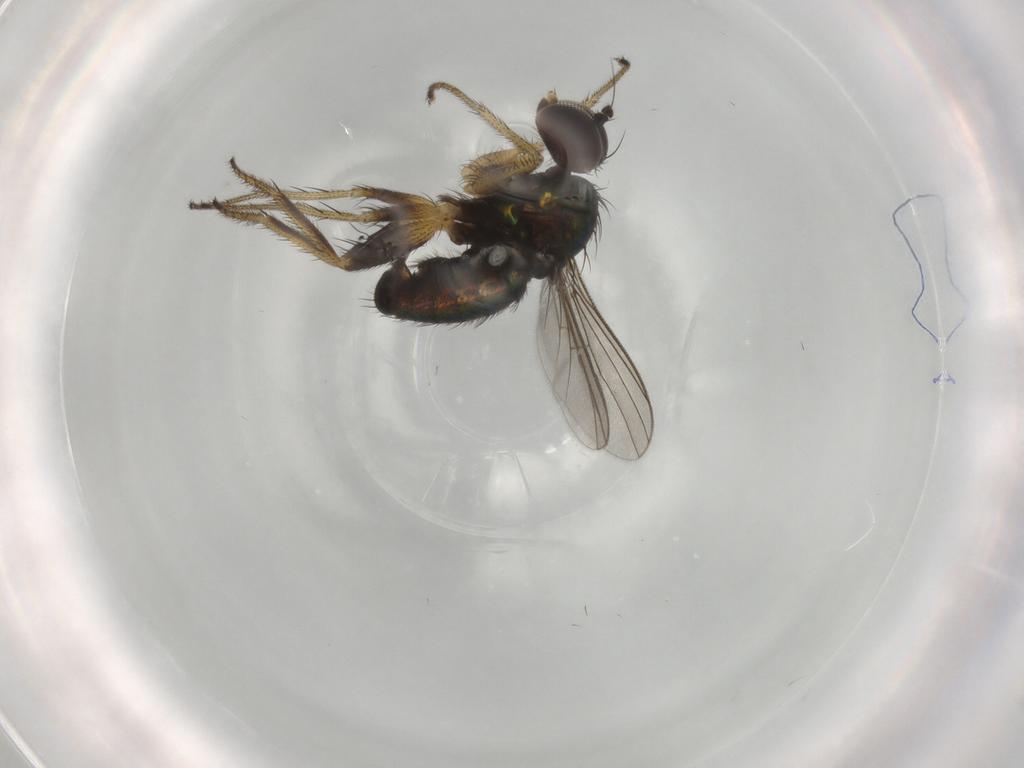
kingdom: Animalia
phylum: Arthropoda
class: Insecta
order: Diptera
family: Dolichopodidae
